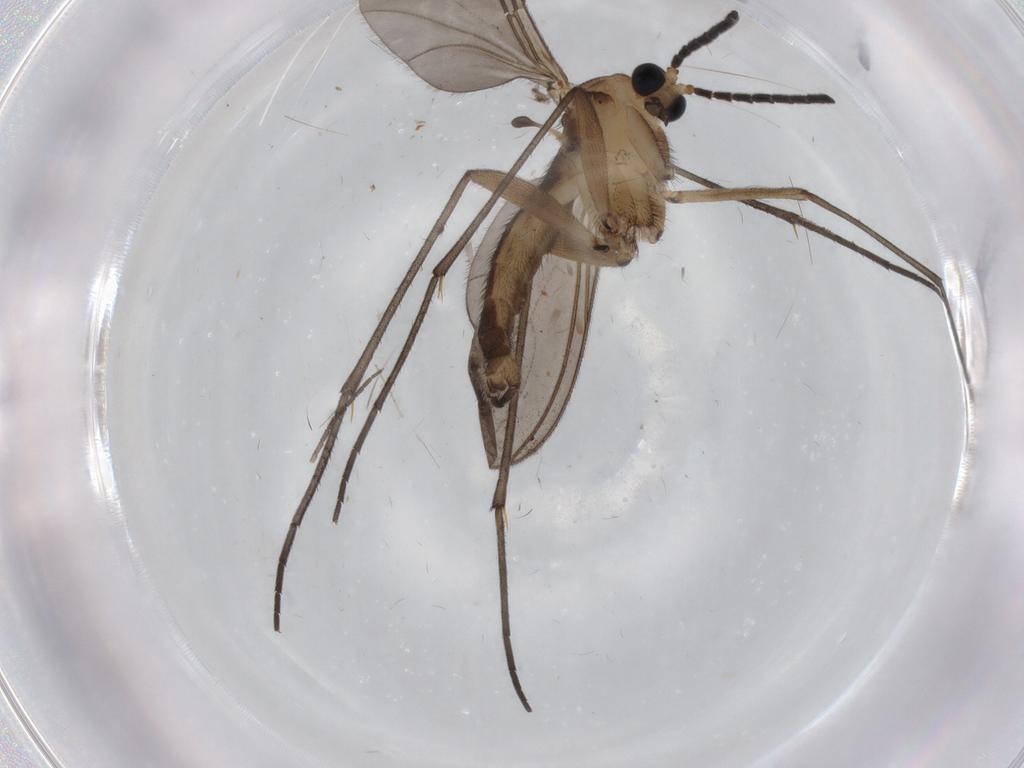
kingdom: Animalia
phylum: Arthropoda
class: Insecta
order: Diptera
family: Sciaridae
